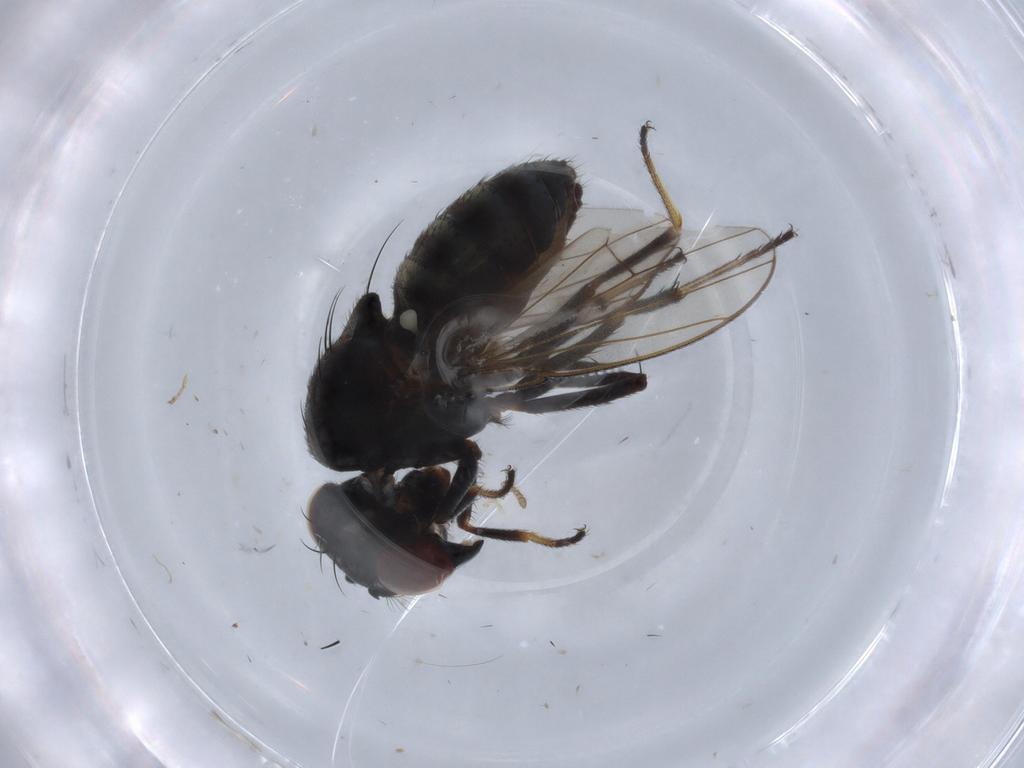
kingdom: Animalia
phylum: Arthropoda
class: Insecta
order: Diptera
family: Ephydridae
